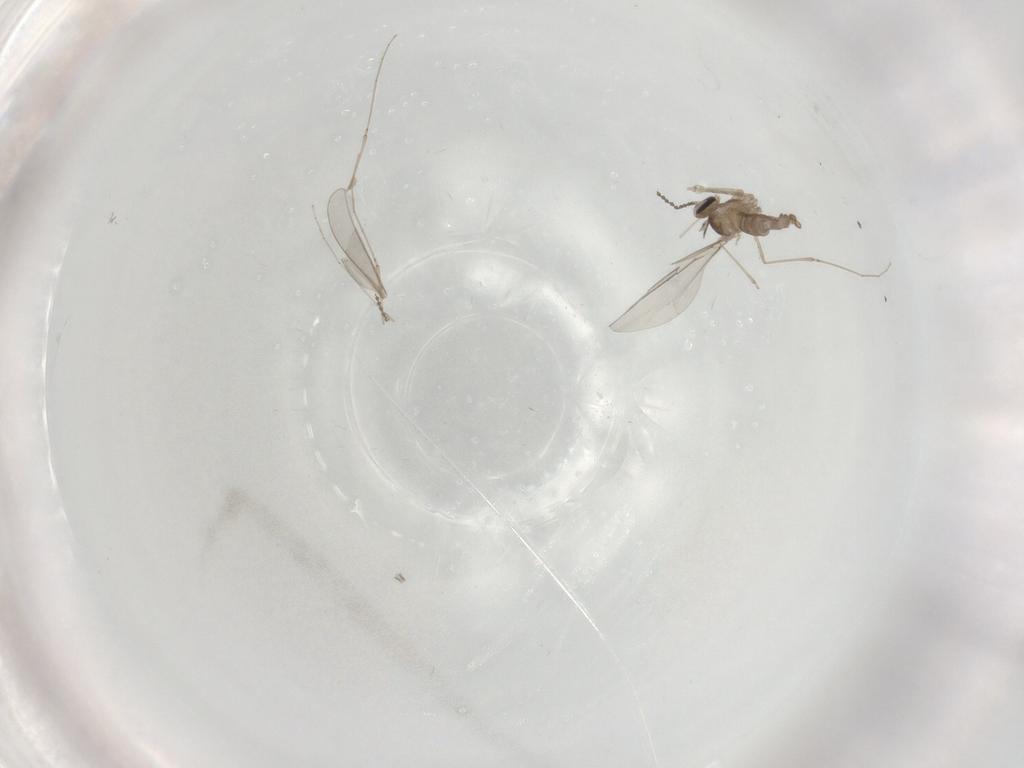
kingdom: Animalia
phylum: Arthropoda
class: Insecta
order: Diptera
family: Cecidomyiidae
